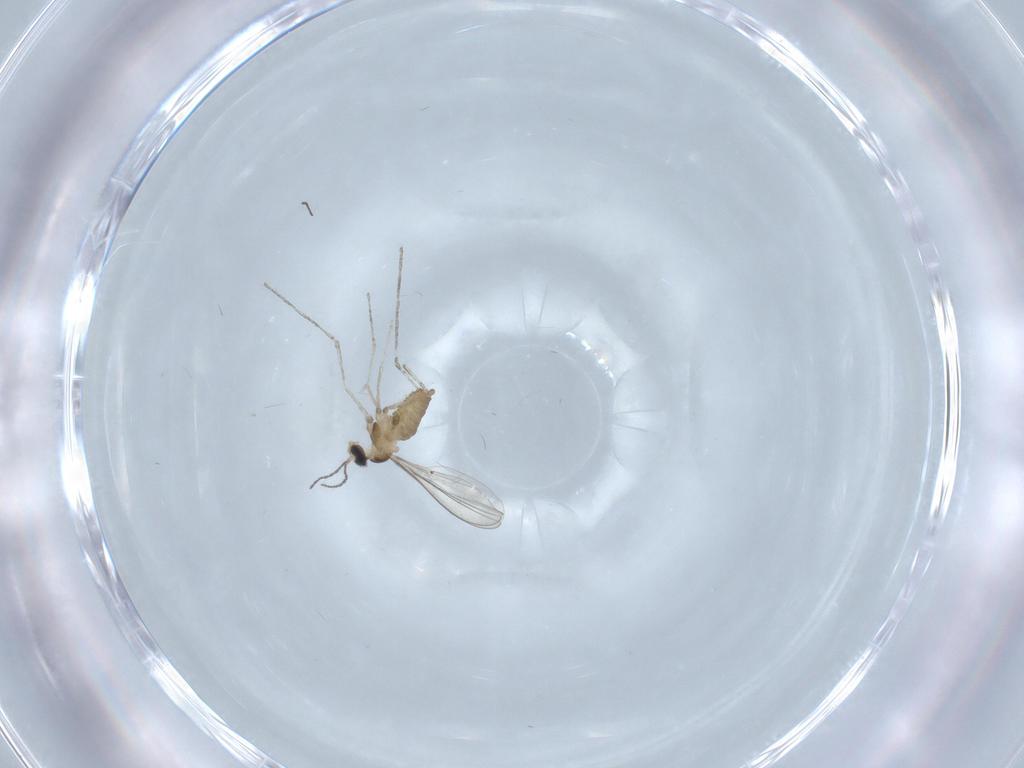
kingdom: Animalia
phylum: Arthropoda
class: Insecta
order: Diptera
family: Cecidomyiidae
